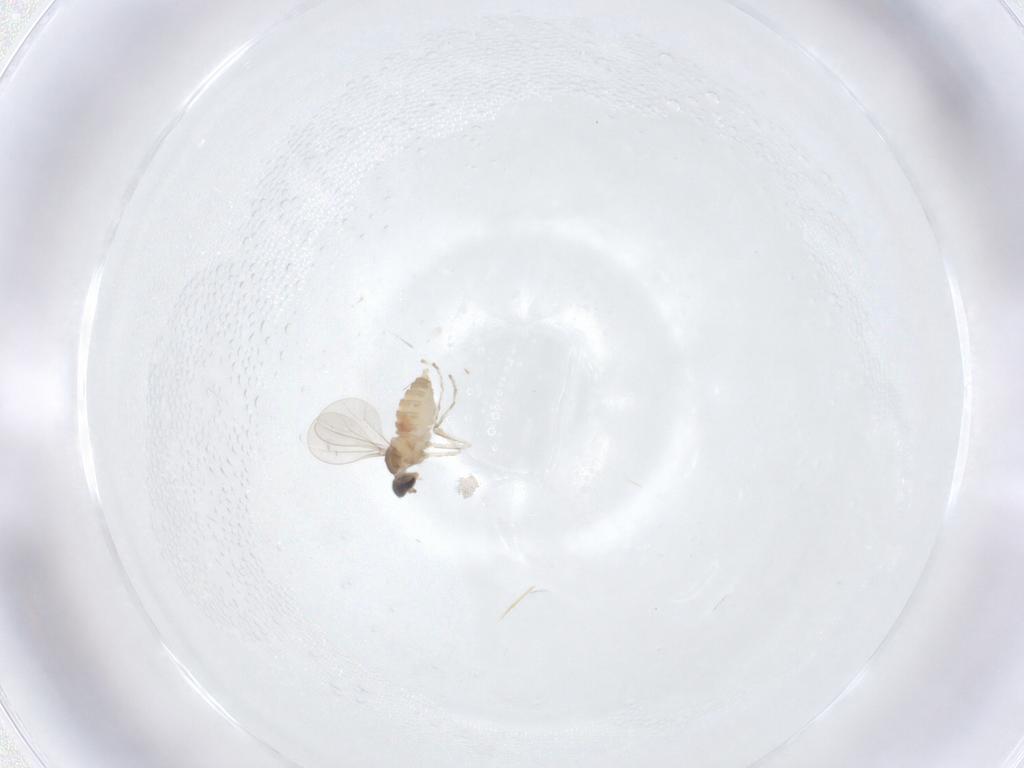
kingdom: Animalia
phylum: Arthropoda
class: Insecta
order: Diptera
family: Cecidomyiidae
